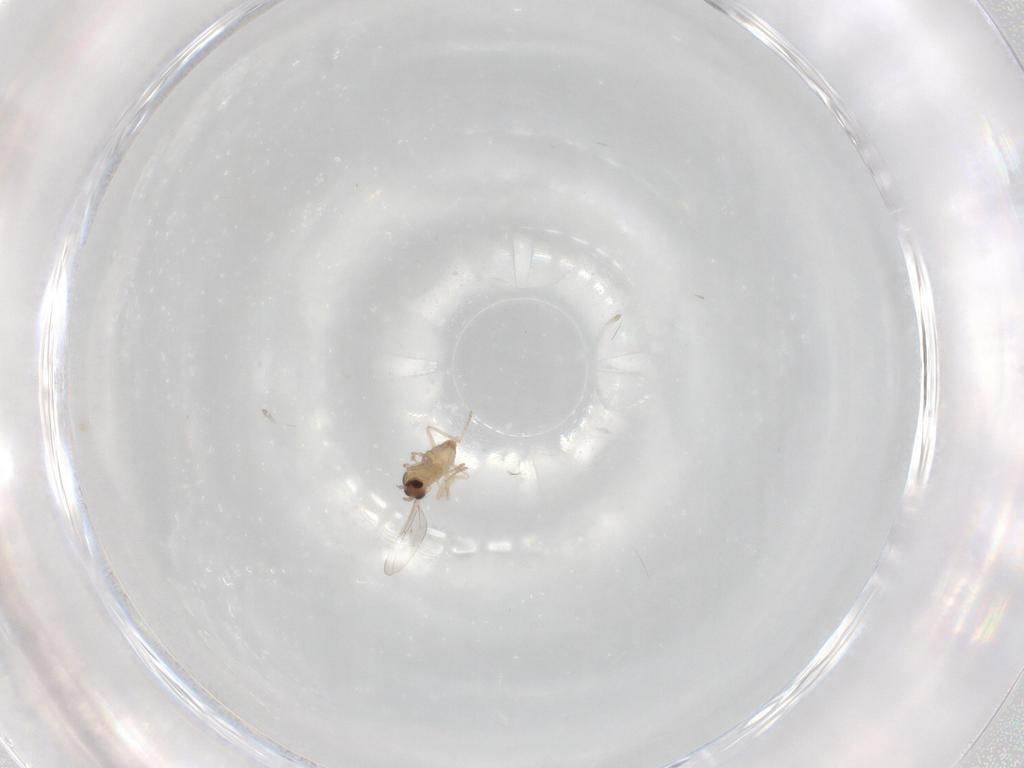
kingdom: Animalia
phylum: Arthropoda
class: Insecta
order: Diptera
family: Cecidomyiidae
